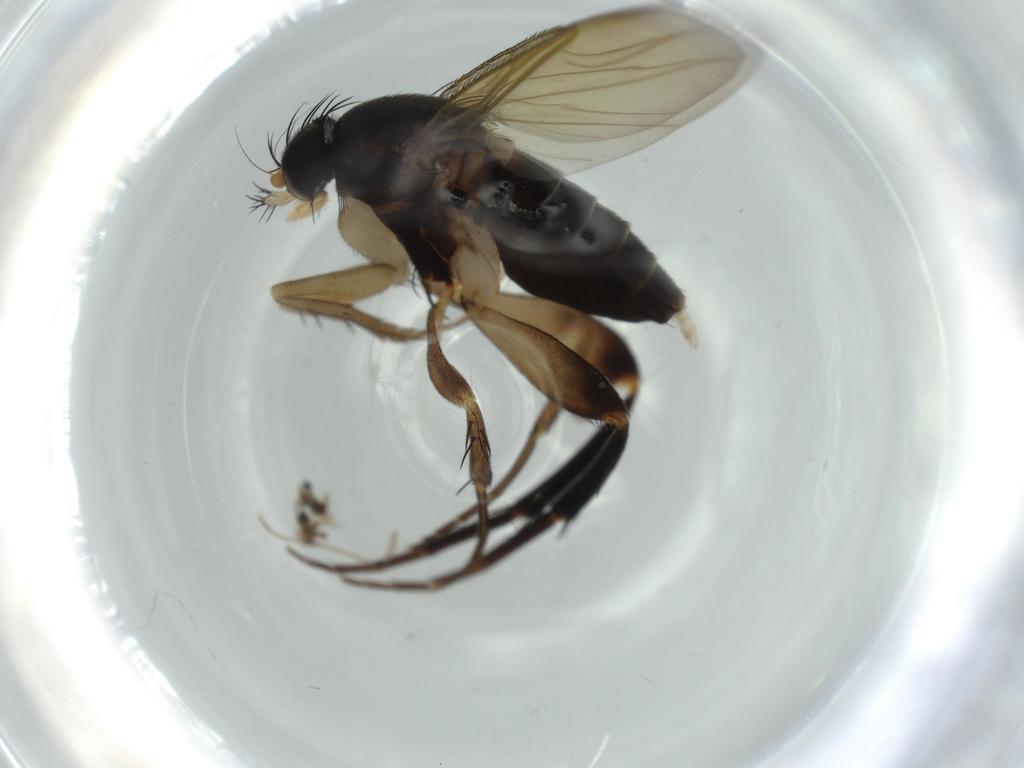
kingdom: Animalia
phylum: Arthropoda
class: Insecta
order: Diptera
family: Phoridae
